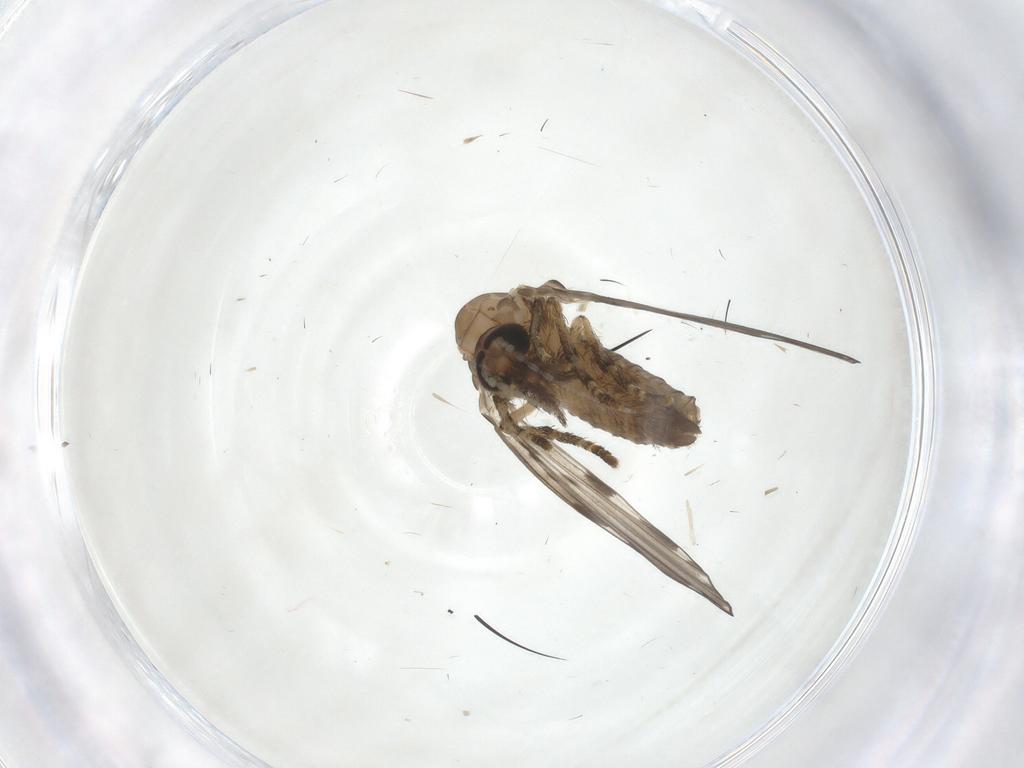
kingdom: Animalia
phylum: Arthropoda
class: Insecta
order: Diptera
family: Psychodidae
